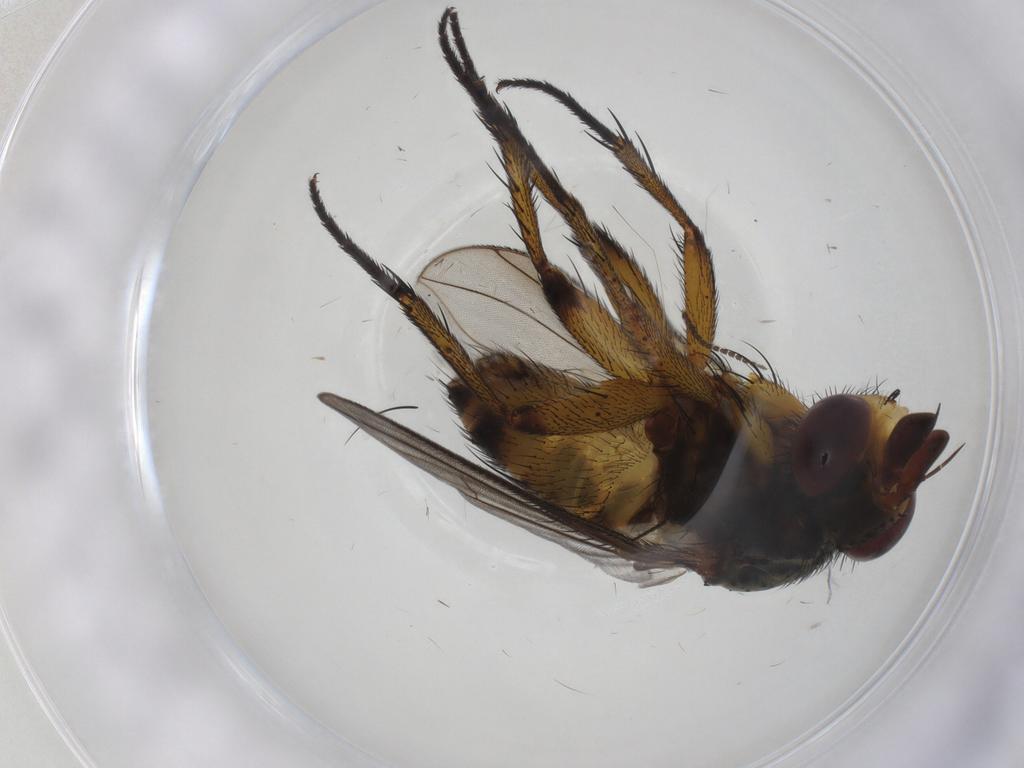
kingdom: Animalia
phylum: Arthropoda
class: Insecta
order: Diptera
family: Chironomidae
